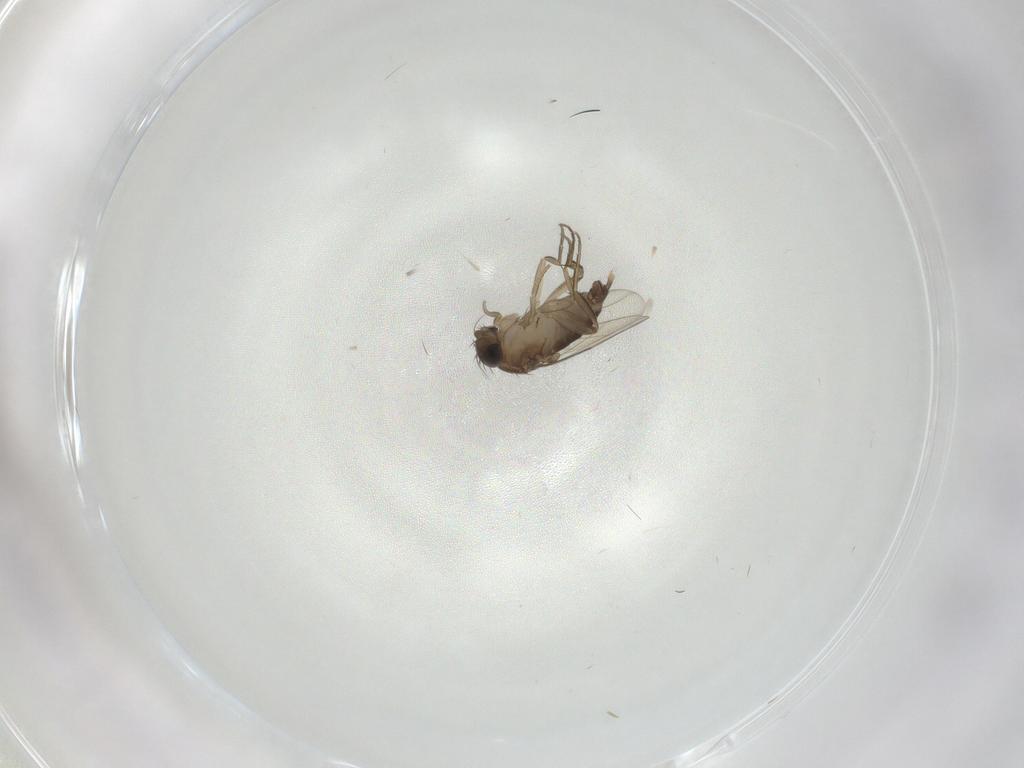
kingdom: Animalia
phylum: Arthropoda
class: Insecta
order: Diptera
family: Phoridae
